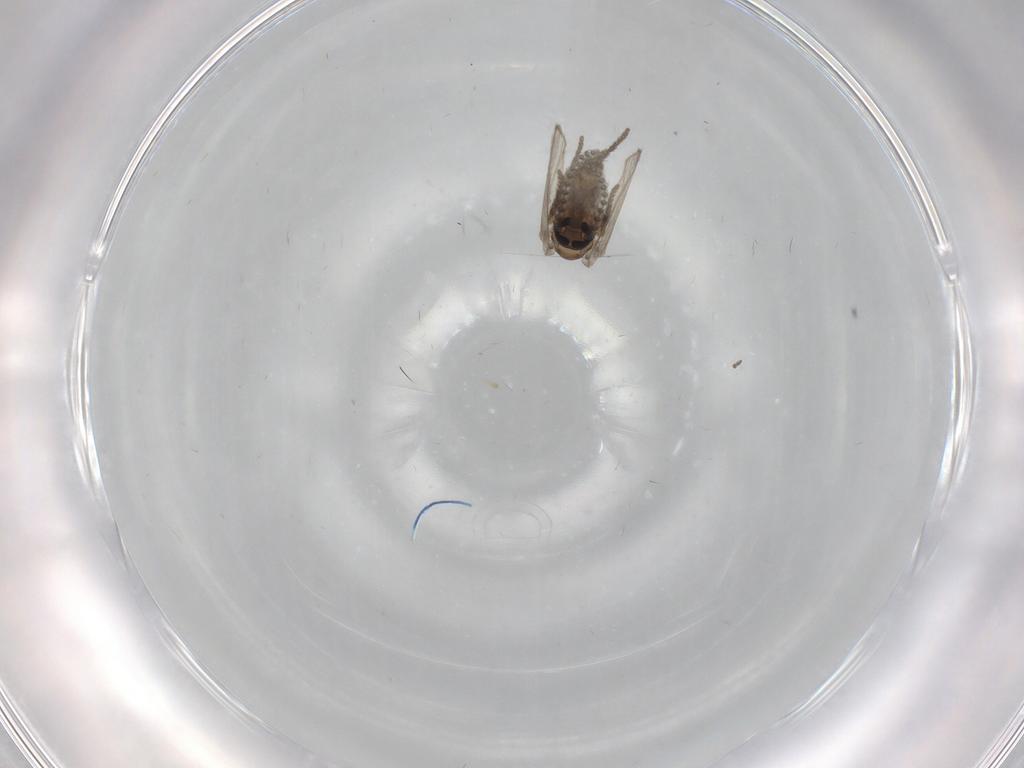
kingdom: Animalia
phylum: Arthropoda
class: Insecta
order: Diptera
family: Psychodidae
